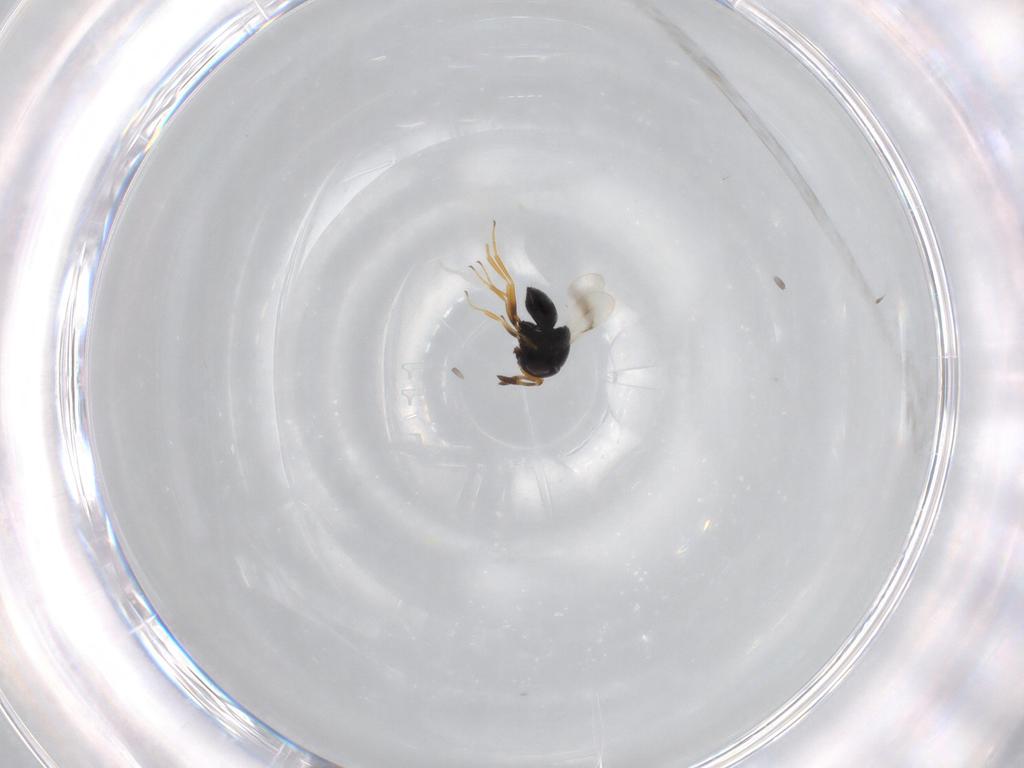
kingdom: Animalia
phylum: Arthropoda
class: Insecta
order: Hymenoptera
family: Scelionidae
